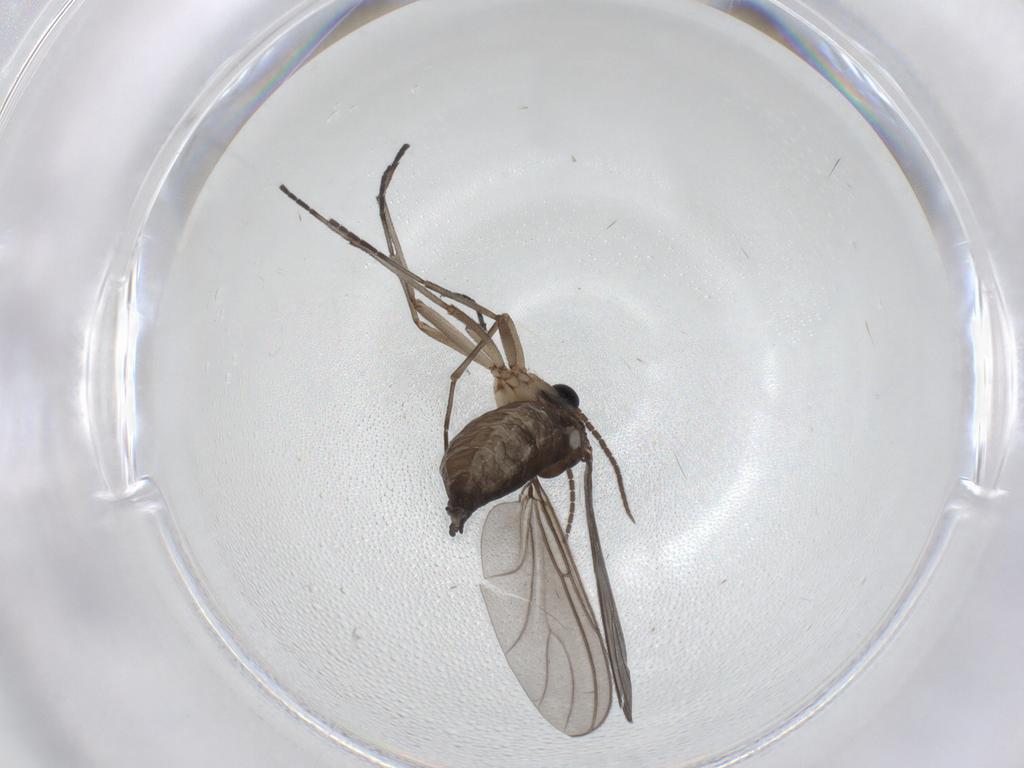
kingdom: Animalia
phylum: Arthropoda
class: Insecta
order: Diptera
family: Sciaridae
